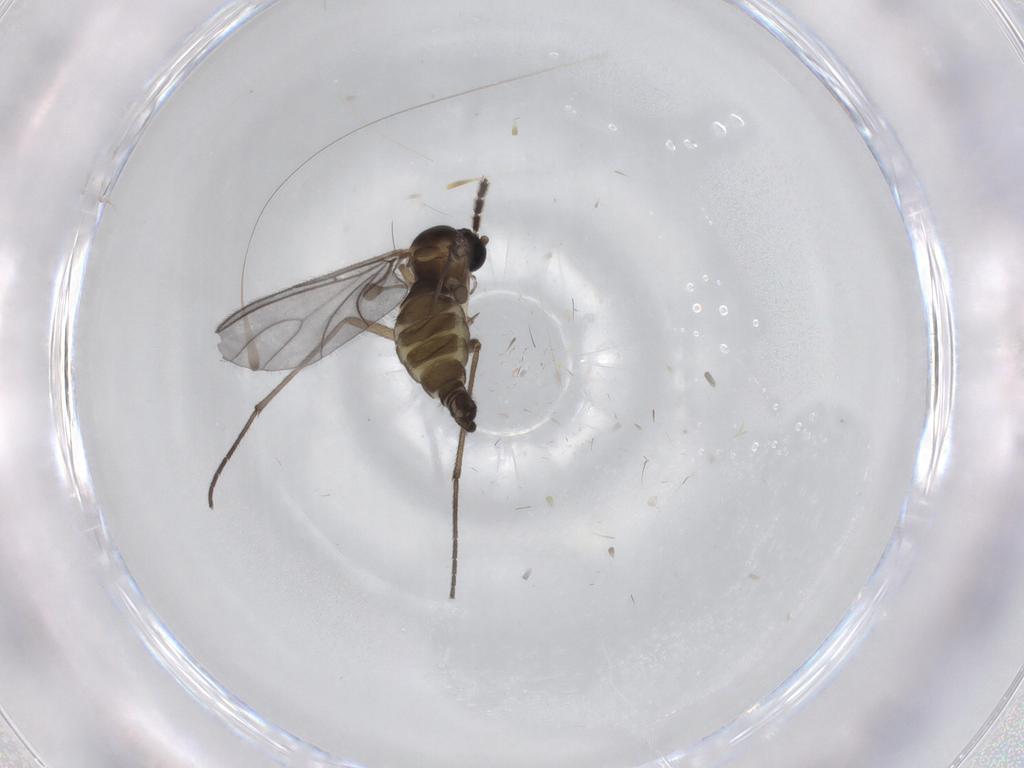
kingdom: Animalia
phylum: Arthropoda
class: Insecta
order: Diptera
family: Sciaridae
